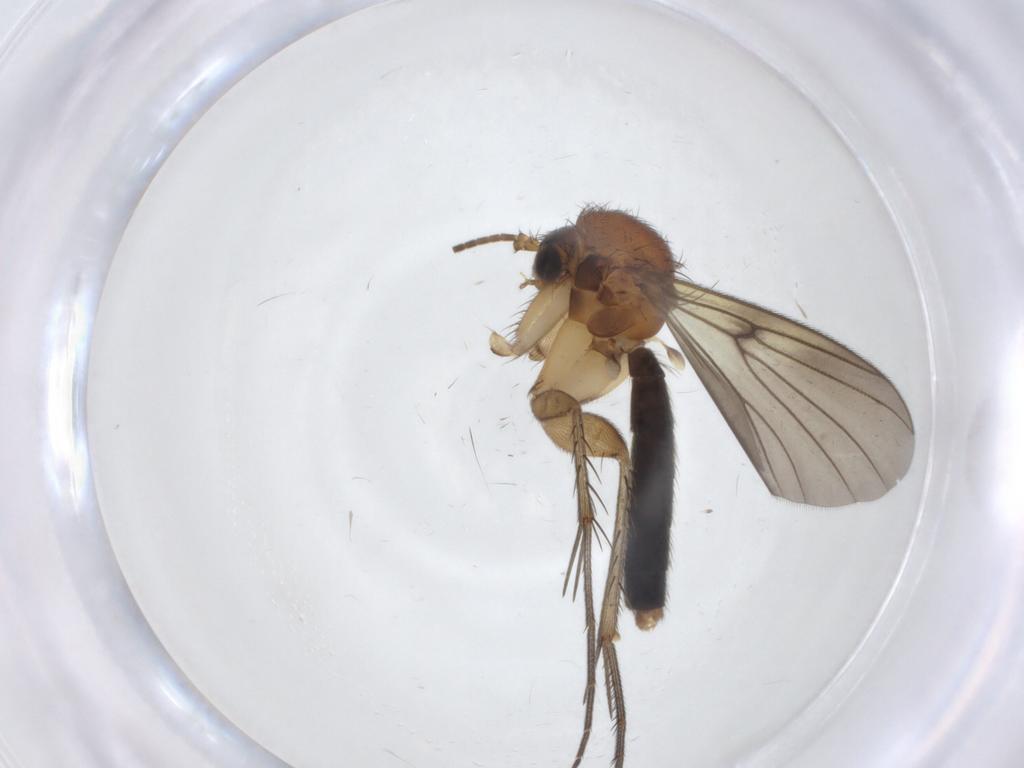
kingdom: Animalia
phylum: Arthropoda
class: Insecta
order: Diptera
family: Mycetophilidae
